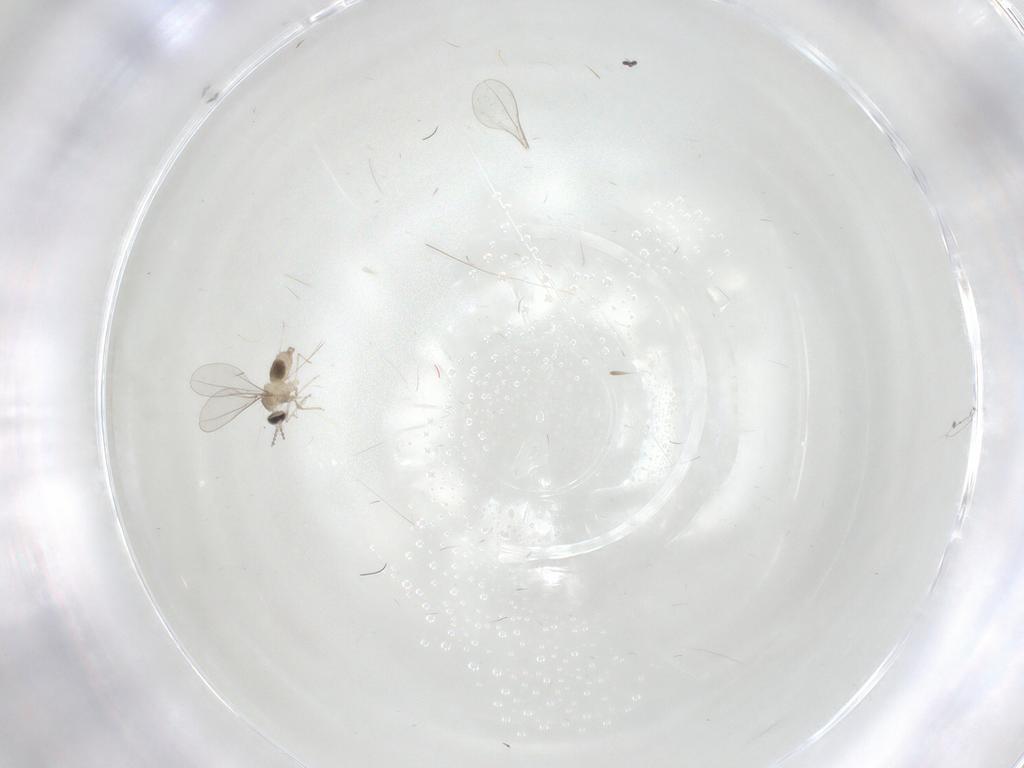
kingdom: Animalia
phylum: Arthropoda
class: Insecta
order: Diptera
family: Cecidomyiidae
